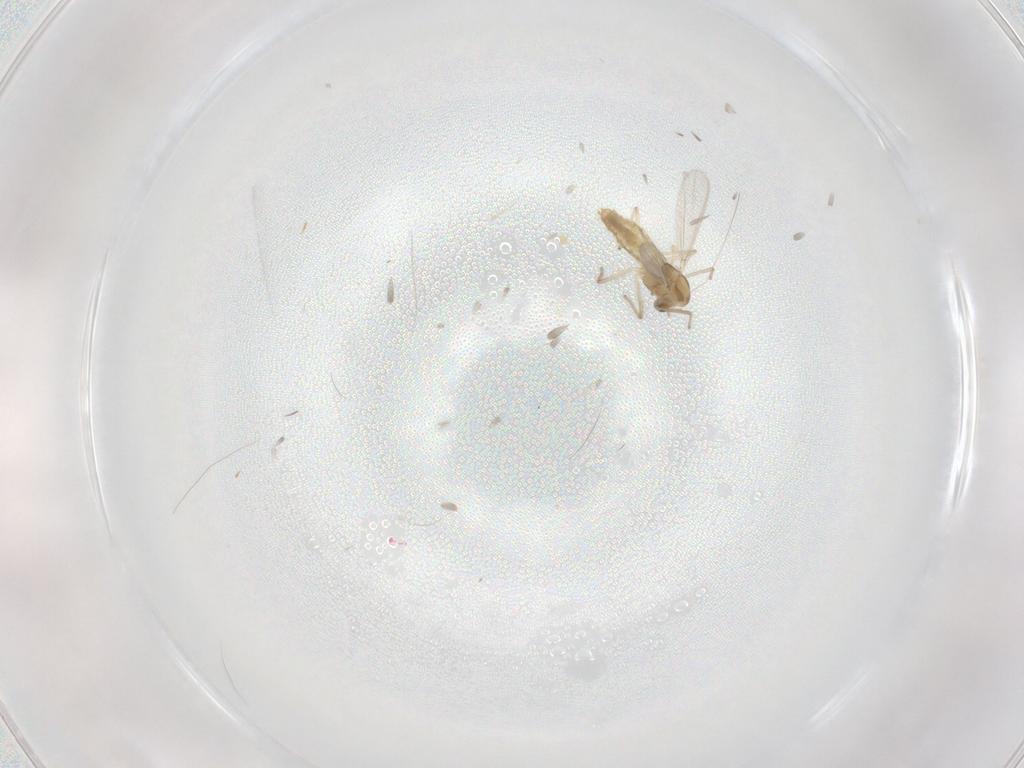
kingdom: Animalia
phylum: Arthropoda
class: Insecta
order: Diptera
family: Chironomidae
